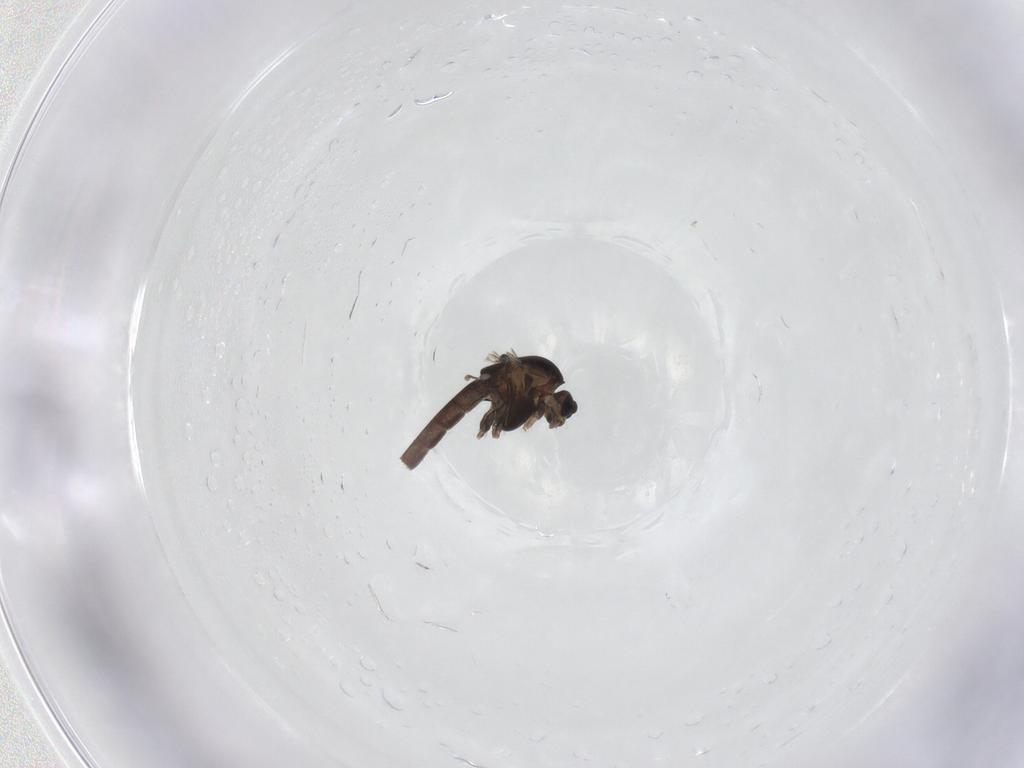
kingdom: Animalia
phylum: Arthropoda
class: Insecta
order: Diptera
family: Chironomidae
